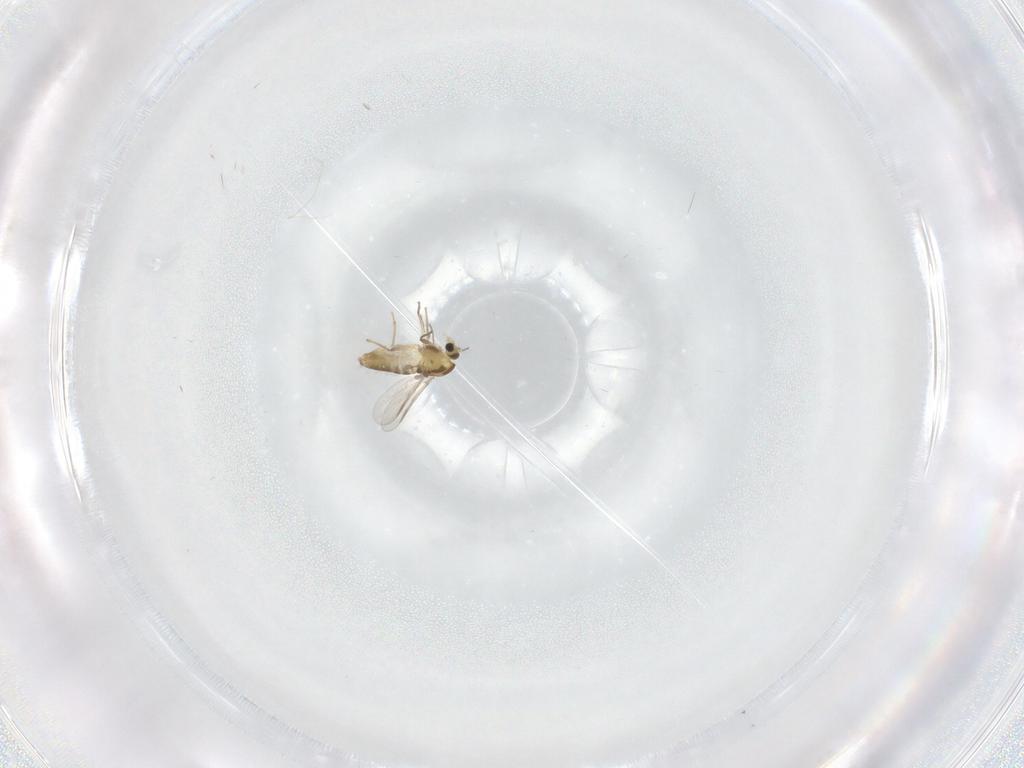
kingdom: Animalia
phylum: Arthropoda
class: Insecta
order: Diptera
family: Chironomidae
